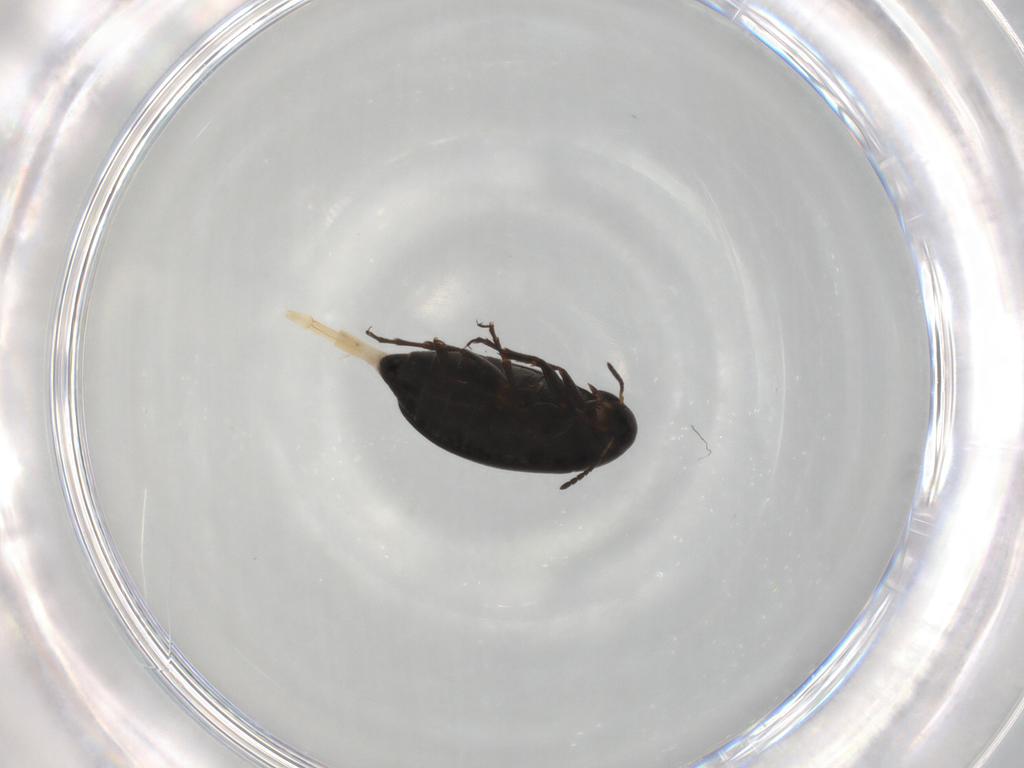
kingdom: Animalia
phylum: Arthropoda
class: Insecta
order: Coleoptera
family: Scraptiidae
